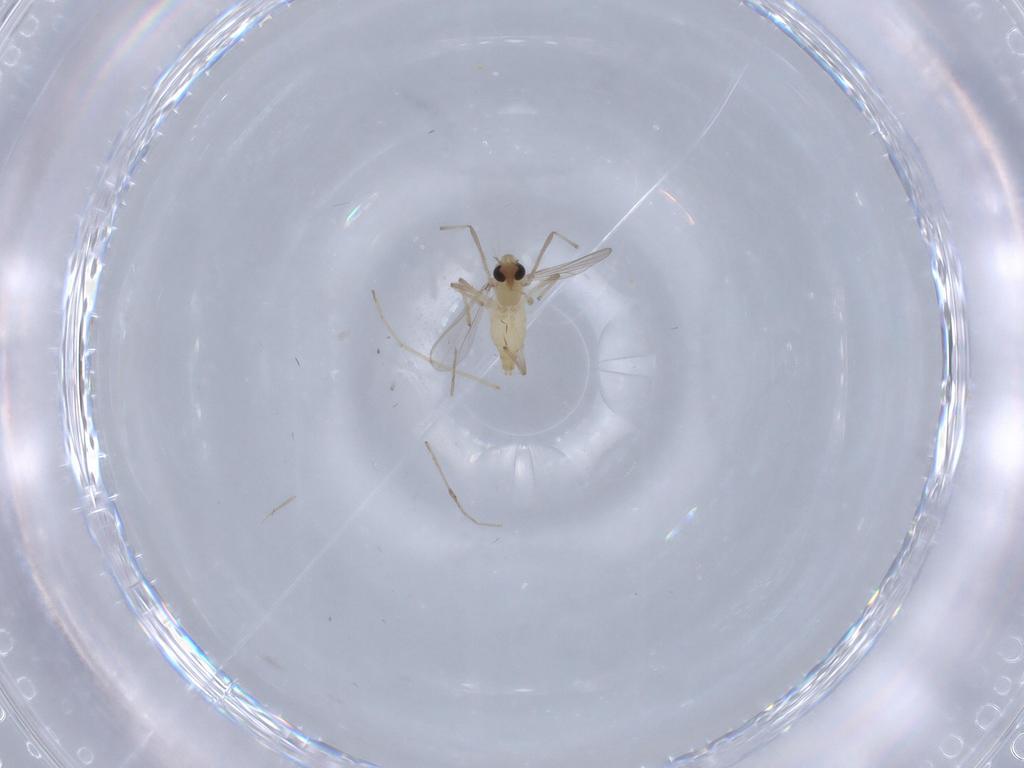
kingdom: Animalia
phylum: Arthropoda
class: Insecta
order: Diptera
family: Chironomidae
